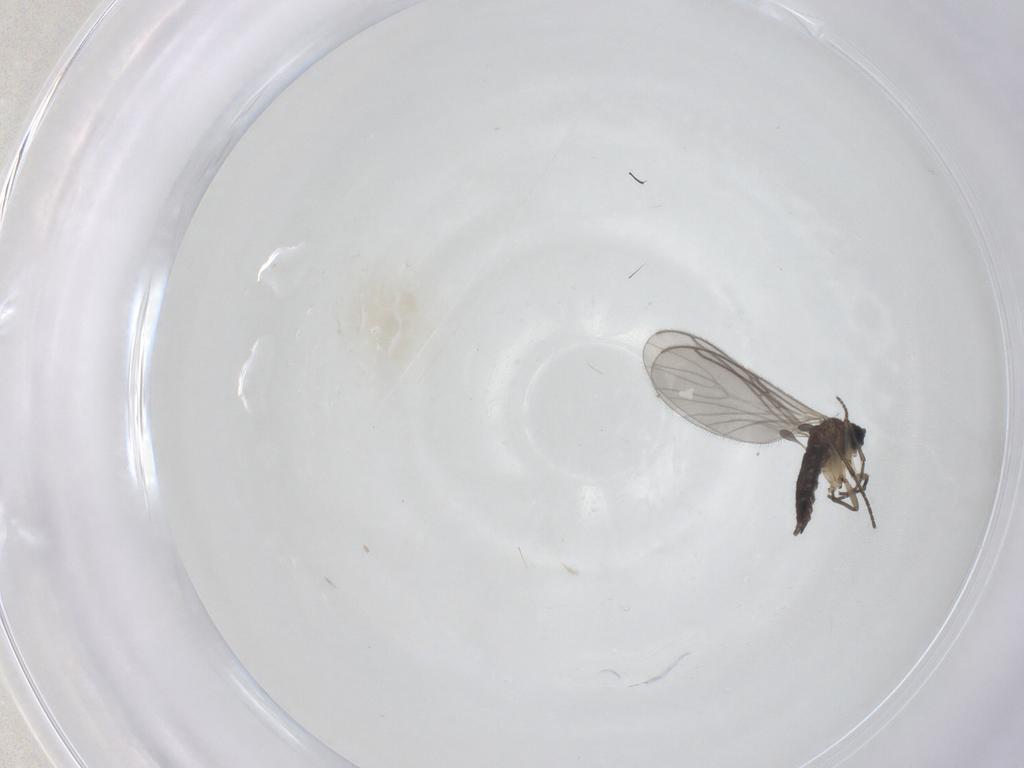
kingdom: Animalia
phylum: Arthropoda
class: Insecta
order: Diptera
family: Sciaridae
